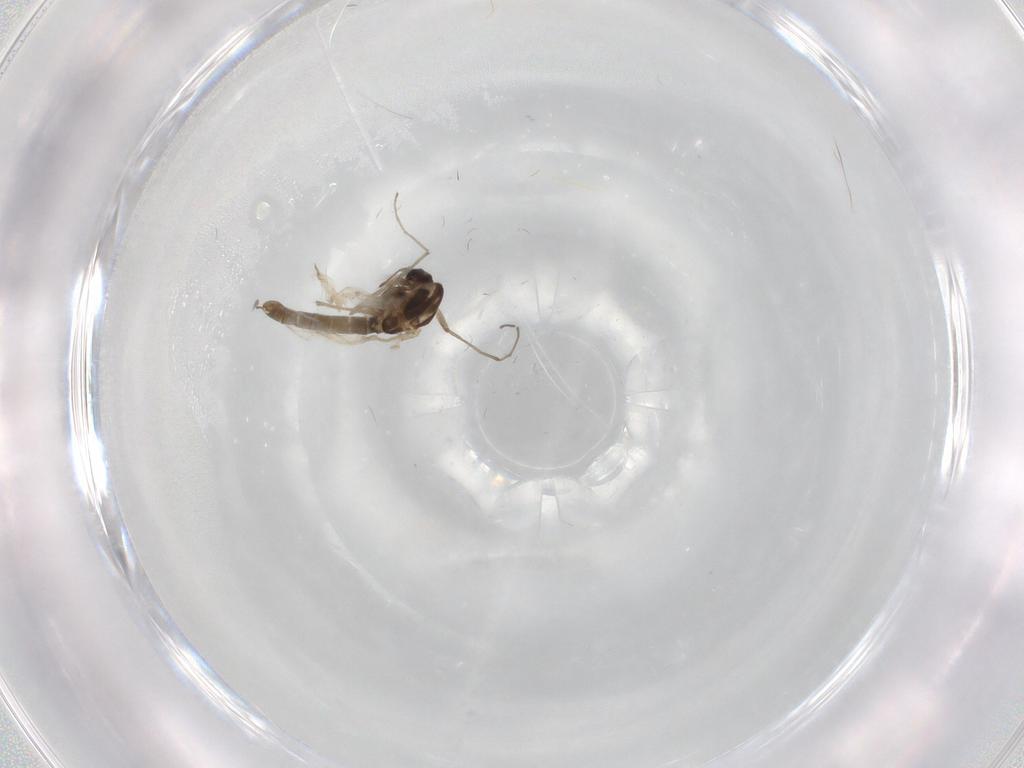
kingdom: Animalia
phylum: Arthropoda
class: Insecta
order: Diptera
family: Chironomidae
